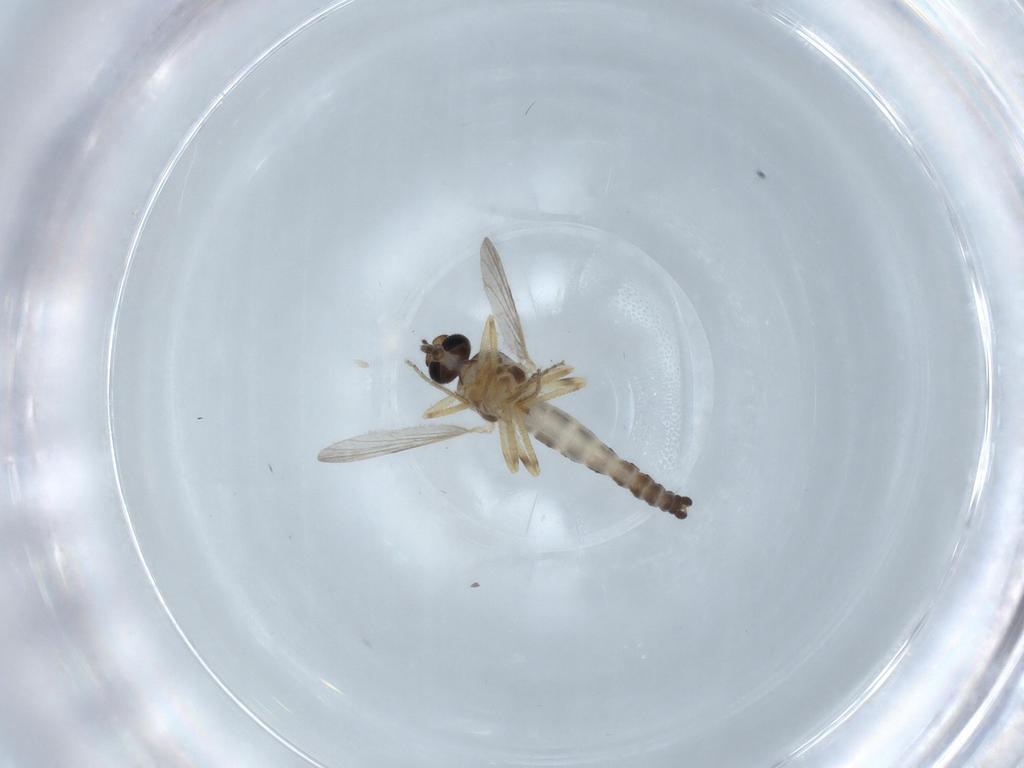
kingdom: Animalia
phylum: Arthropoda
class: Insecta
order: Diptera
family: Ceratopogonidae
